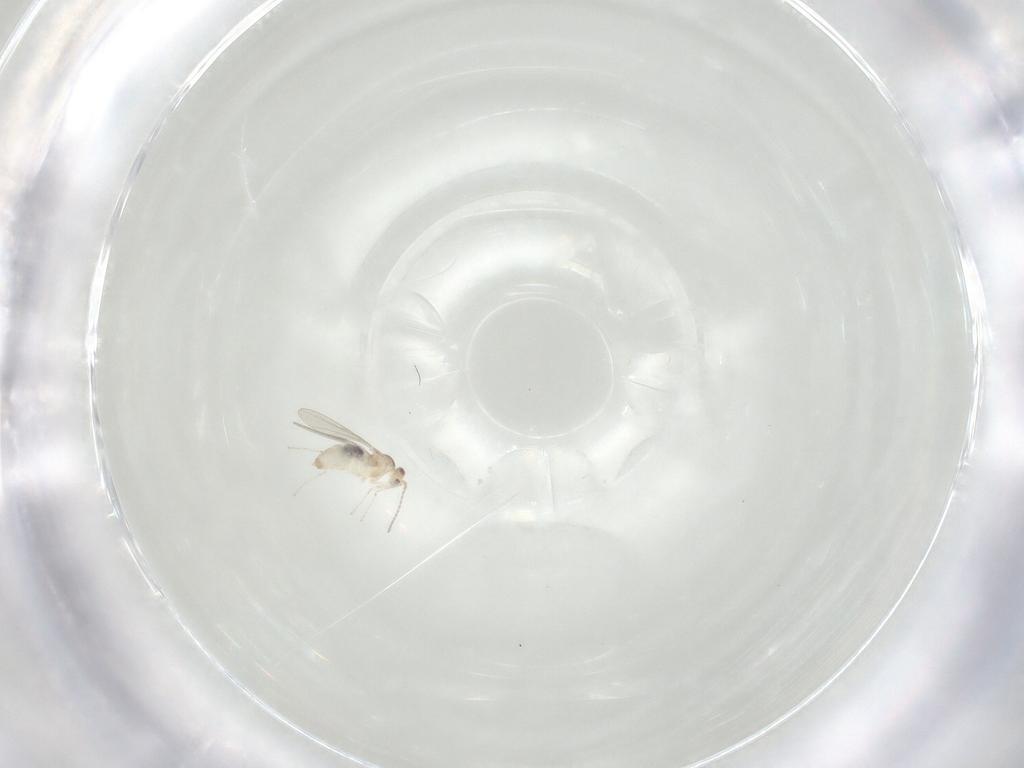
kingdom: Animalia
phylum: Arthropoda
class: Insecta
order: Diptera
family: Cecidomyiidae
